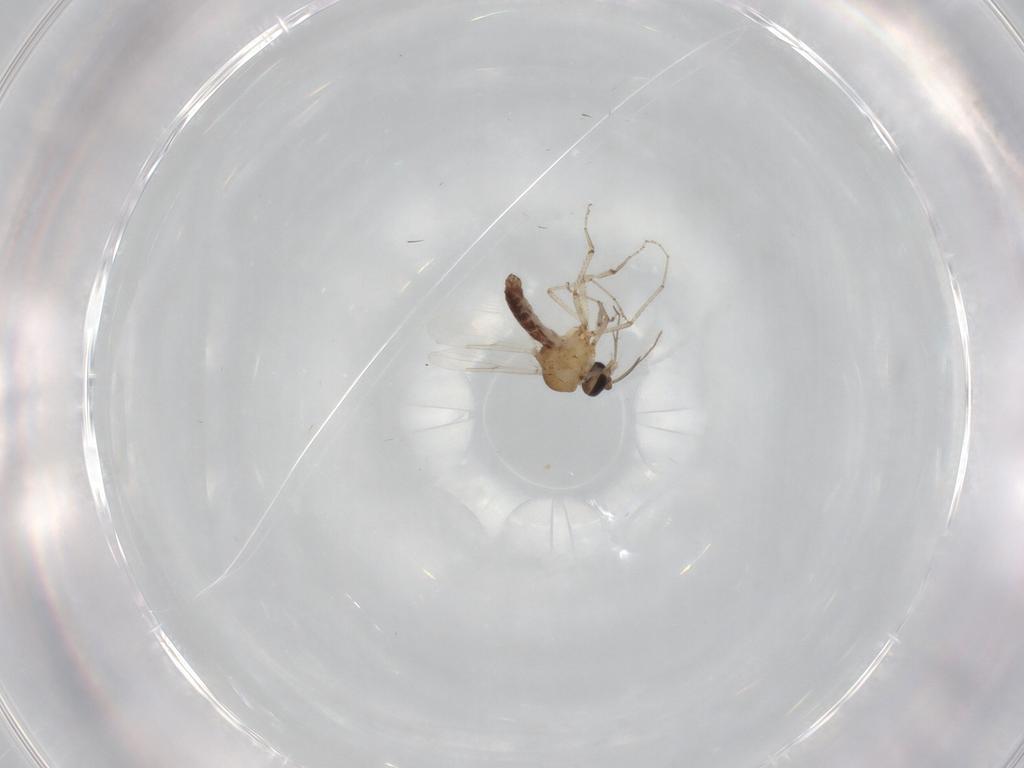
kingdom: Animalia
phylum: Arthropoda
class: Insecta
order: Diptera
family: Ceratopogonidae
